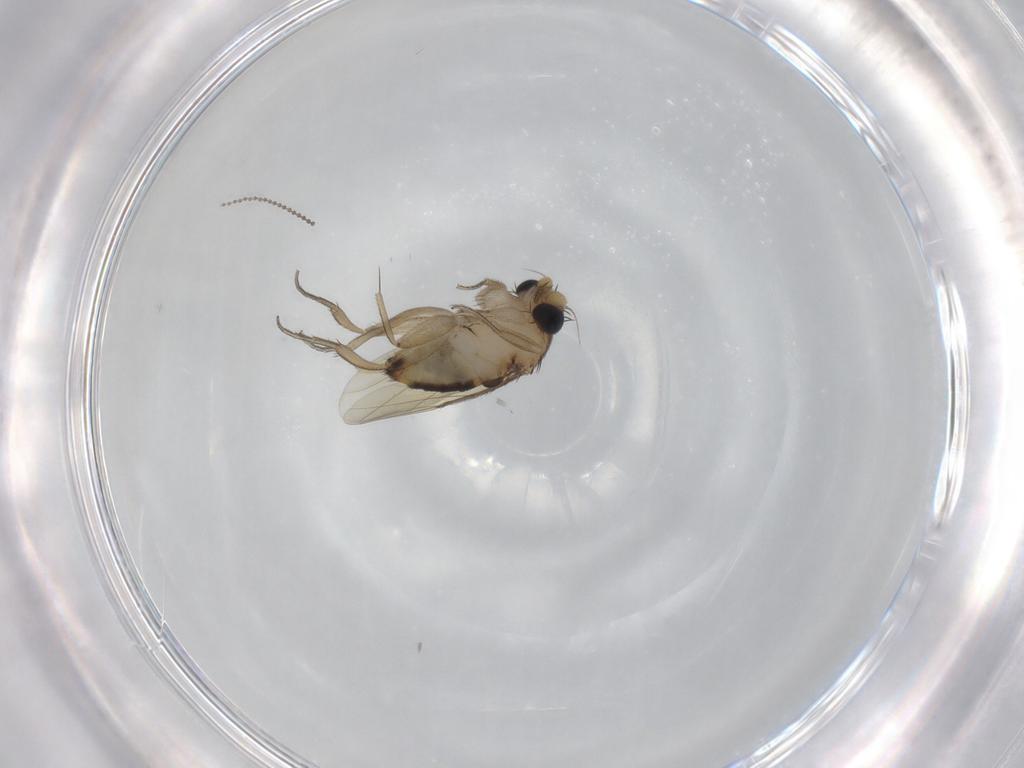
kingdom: Animalia
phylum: Arthropoda
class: Insecta
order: Diptera
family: Phoridae
